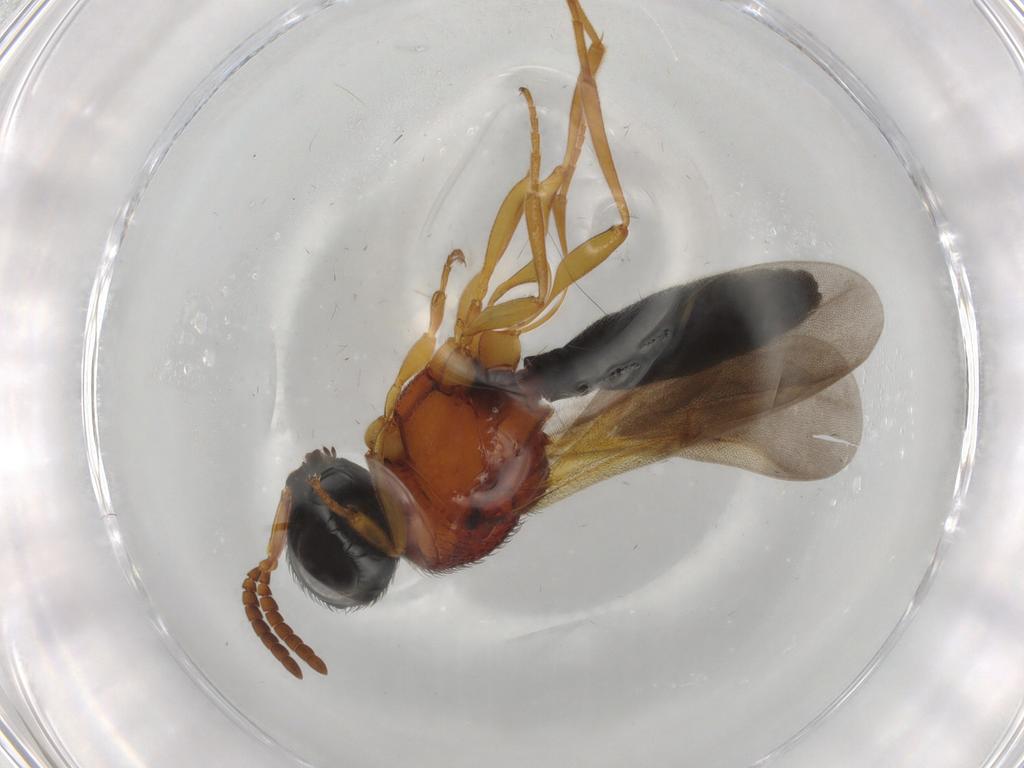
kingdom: Animalia
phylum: Arthropoda
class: Insecta
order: Hymenoptera
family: Scelionidae
